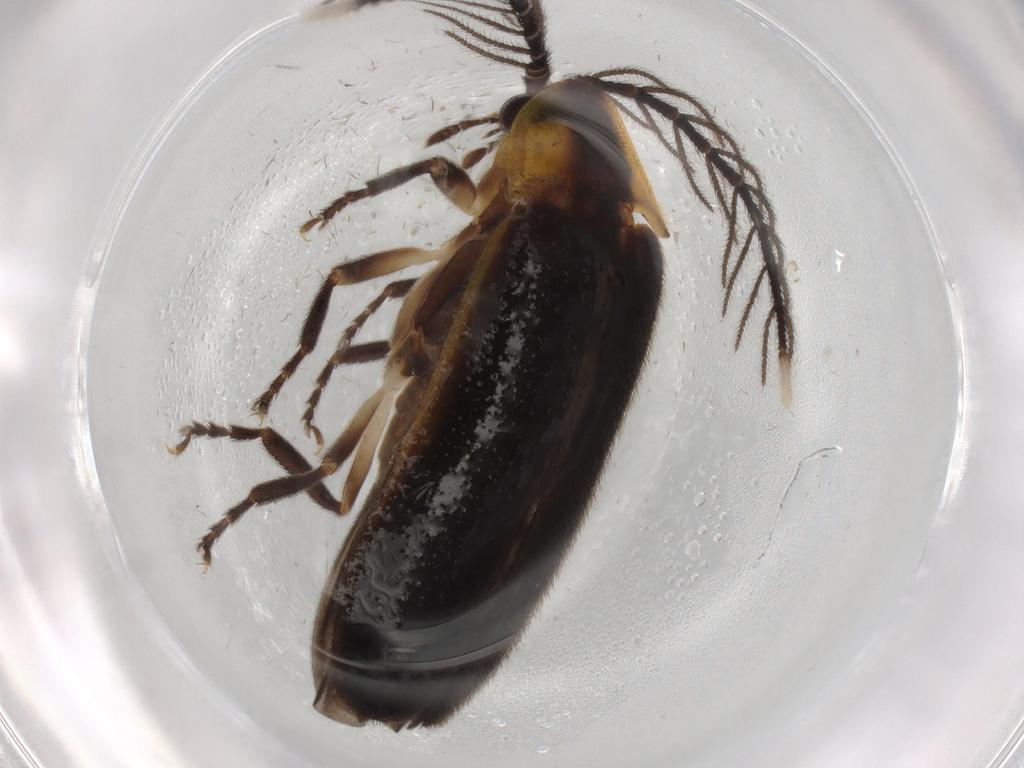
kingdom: Animalia
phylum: Arthropoda
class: Insecta
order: Coleoptera
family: Lampyridae
